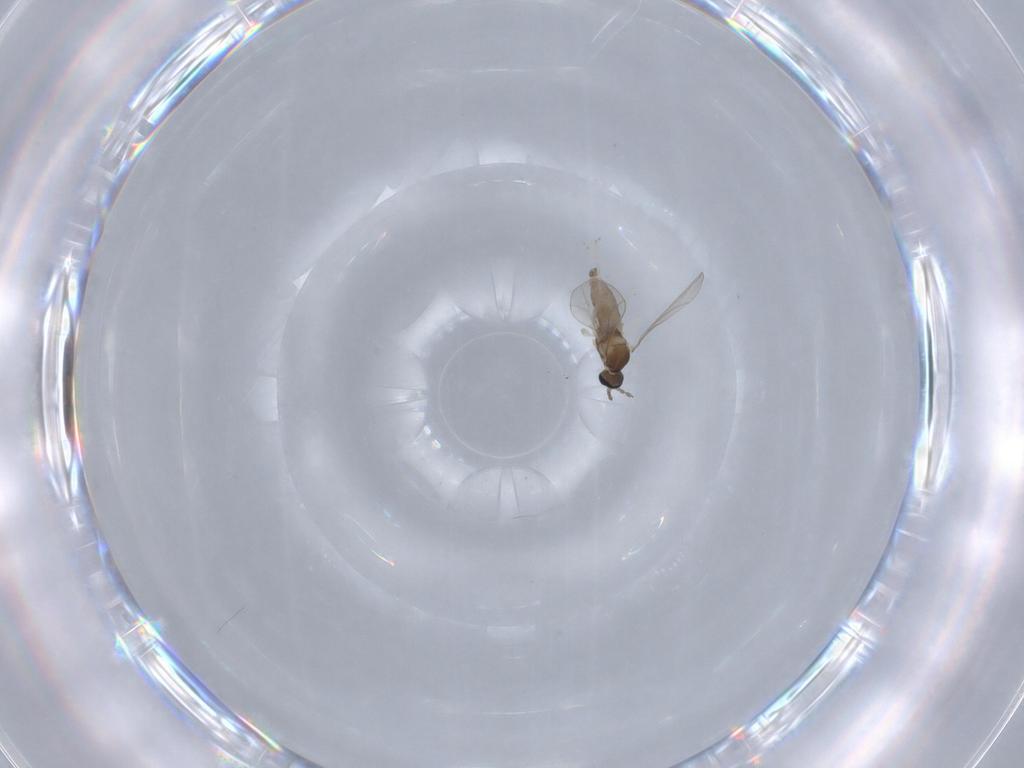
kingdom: Animalia
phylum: Arthropoda
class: Insecta
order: Diptera
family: Cecidomyiidae
